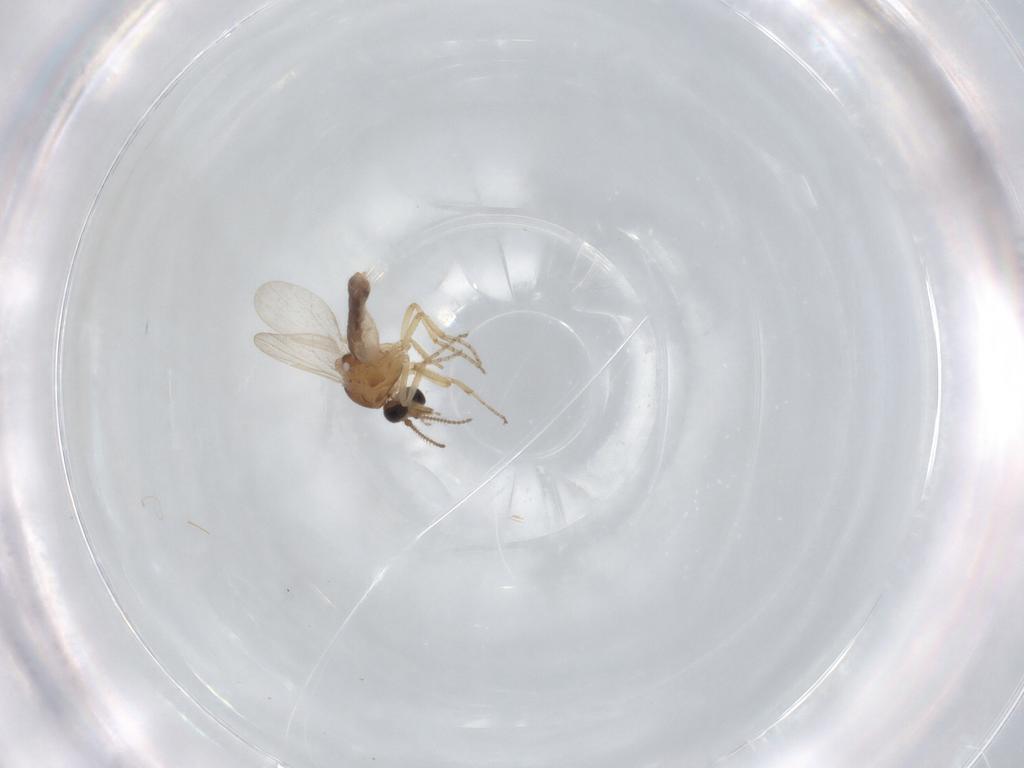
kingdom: Animalia
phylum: Arthropoda
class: Insecta
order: Diptera
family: Ceratopogonidae
